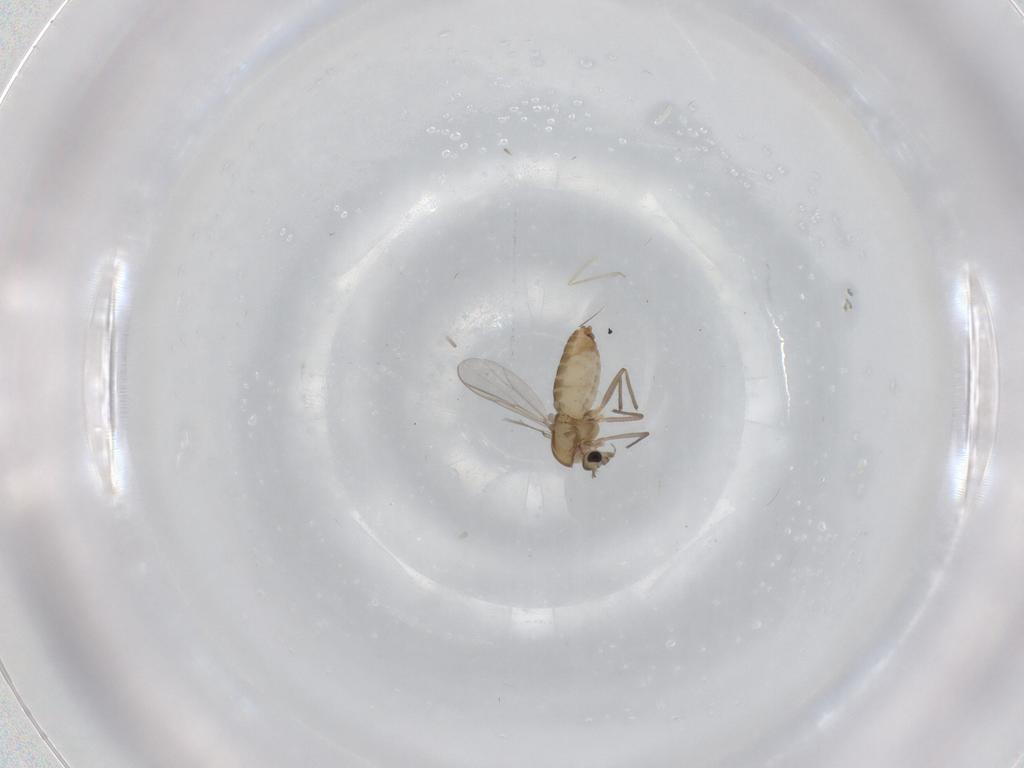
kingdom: Animalia
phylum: Arthropoda
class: Insecta
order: Diptera
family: Chironomidae
